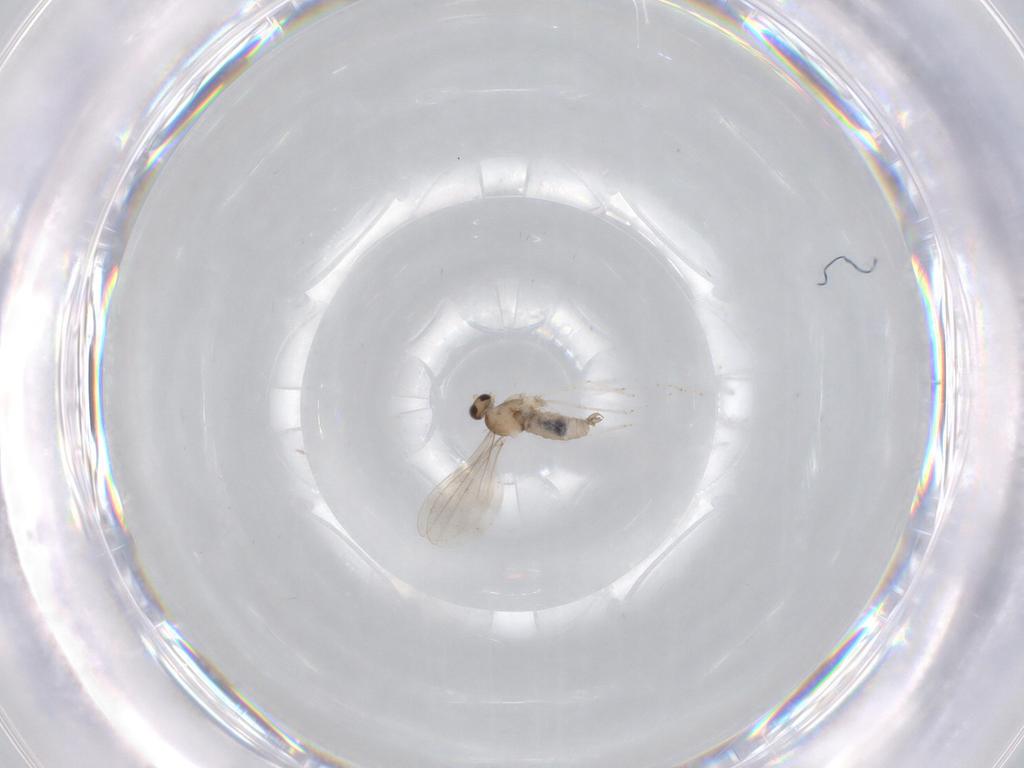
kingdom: Animalia
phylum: Arthropoda
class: Insecta
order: Diptera
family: Cecidomyiidae
